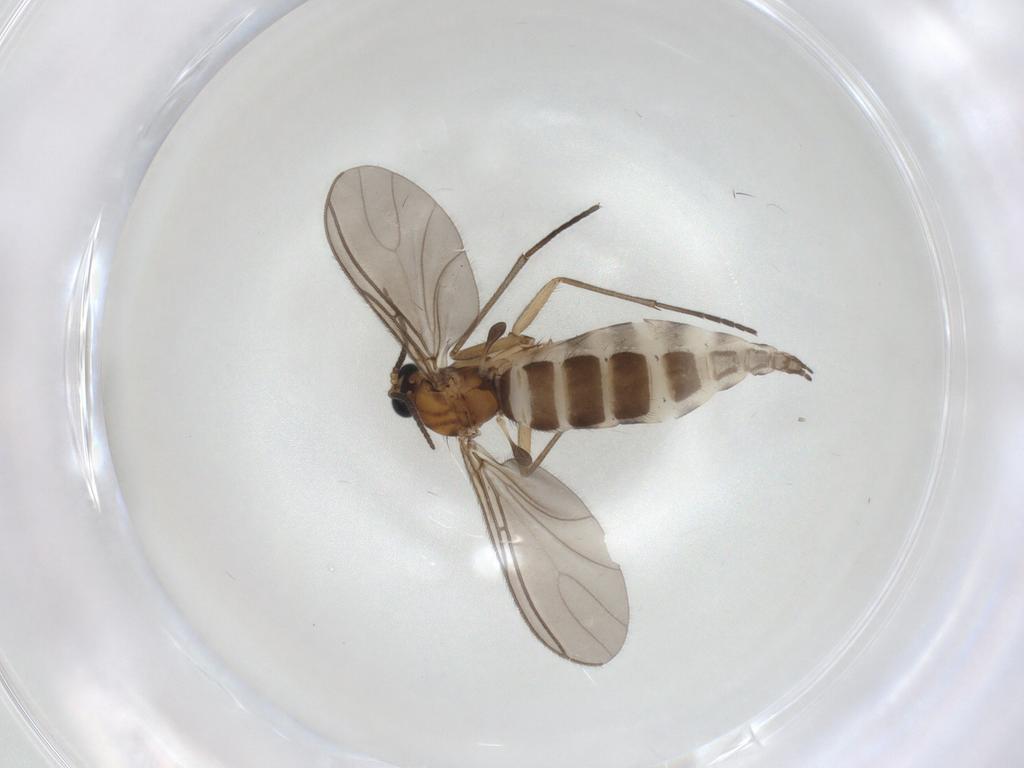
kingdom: Animalia
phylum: Arthropoda
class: Insecta
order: Diptera
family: Sciaridae
